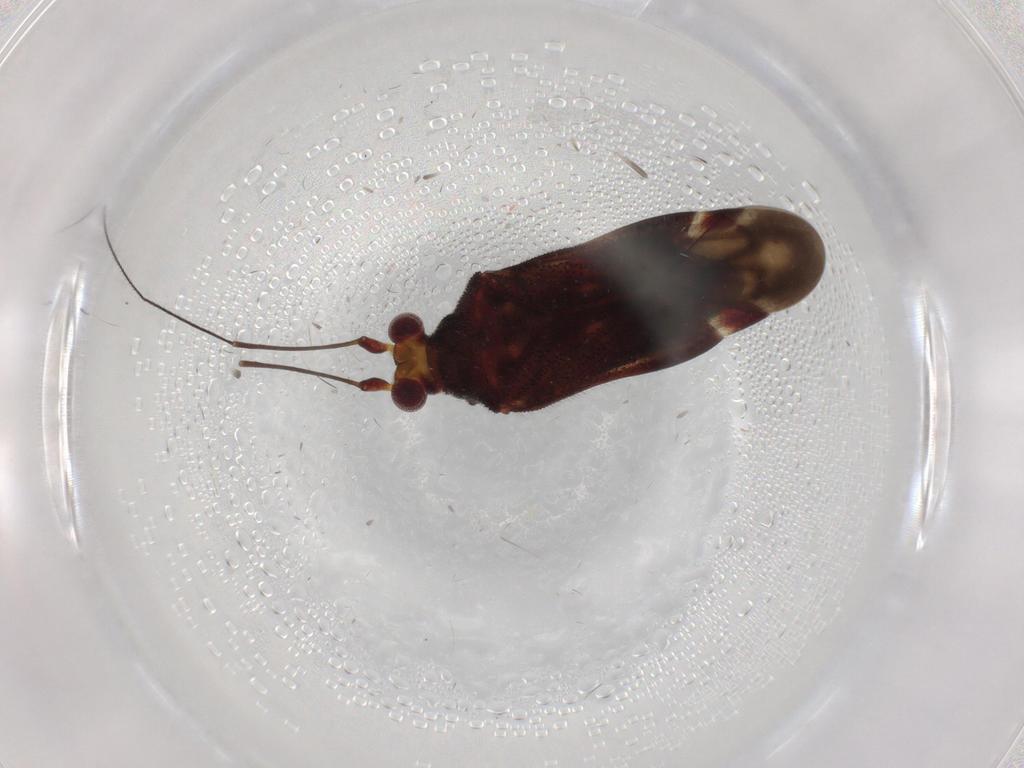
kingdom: Animalia
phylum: Arthropoda
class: Insecta
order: Hemiptera
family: Miridae
